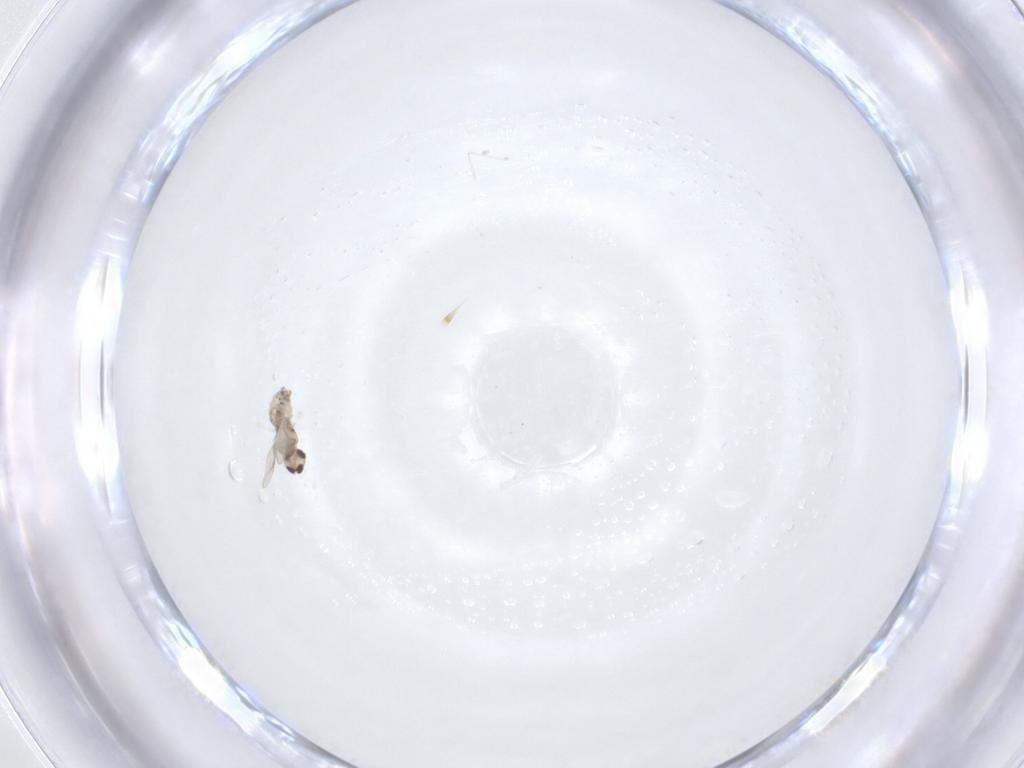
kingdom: Animalia
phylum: Arthropoda
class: Insecta
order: Diptera
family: Cecidomyiidae
